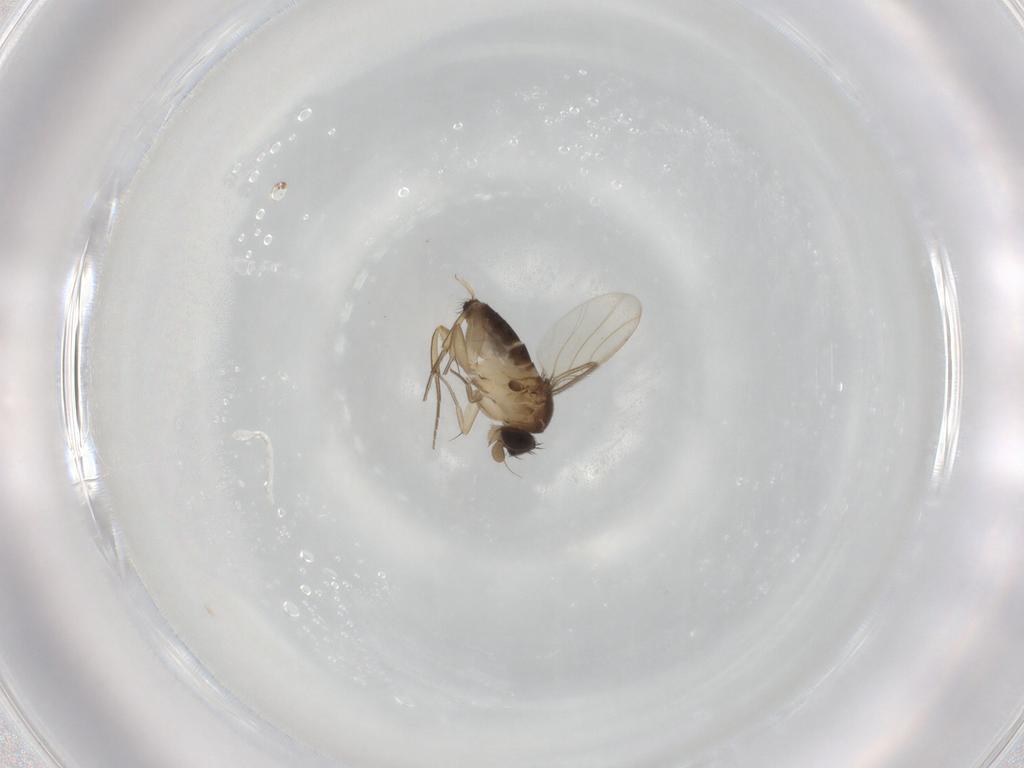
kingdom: Animalia
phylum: Arthropoda
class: Insecta
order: Diptera
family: Phoridae
